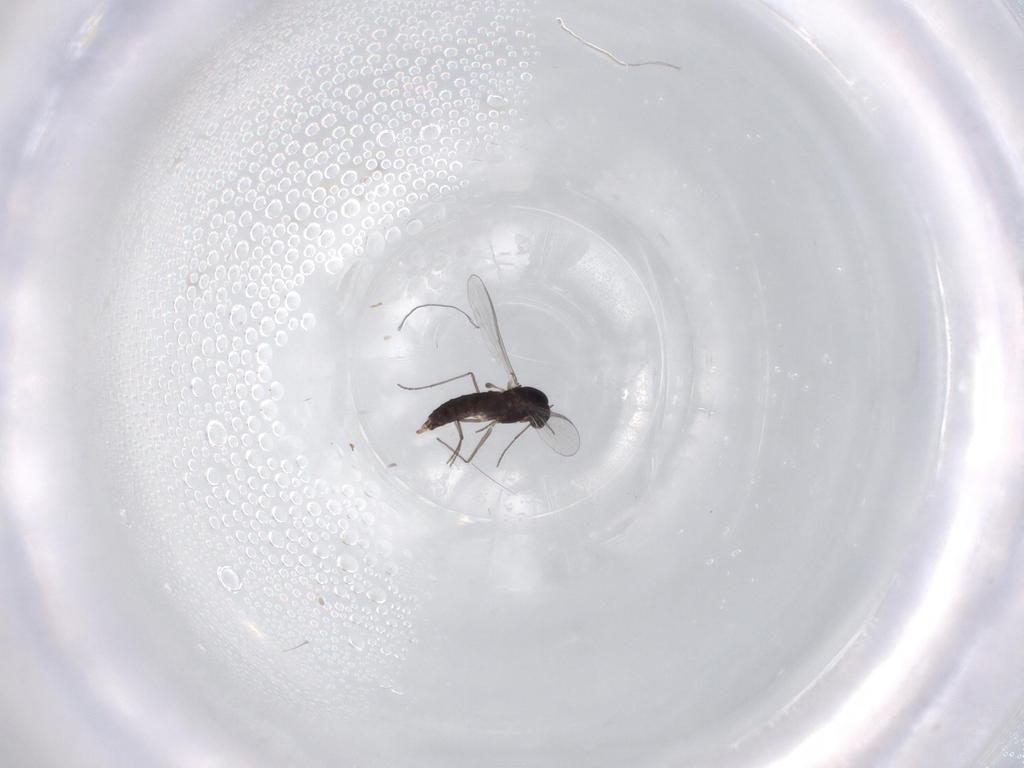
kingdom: Animalia
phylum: Arthropoda
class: Insecta
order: Diptera
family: Chironomidae
